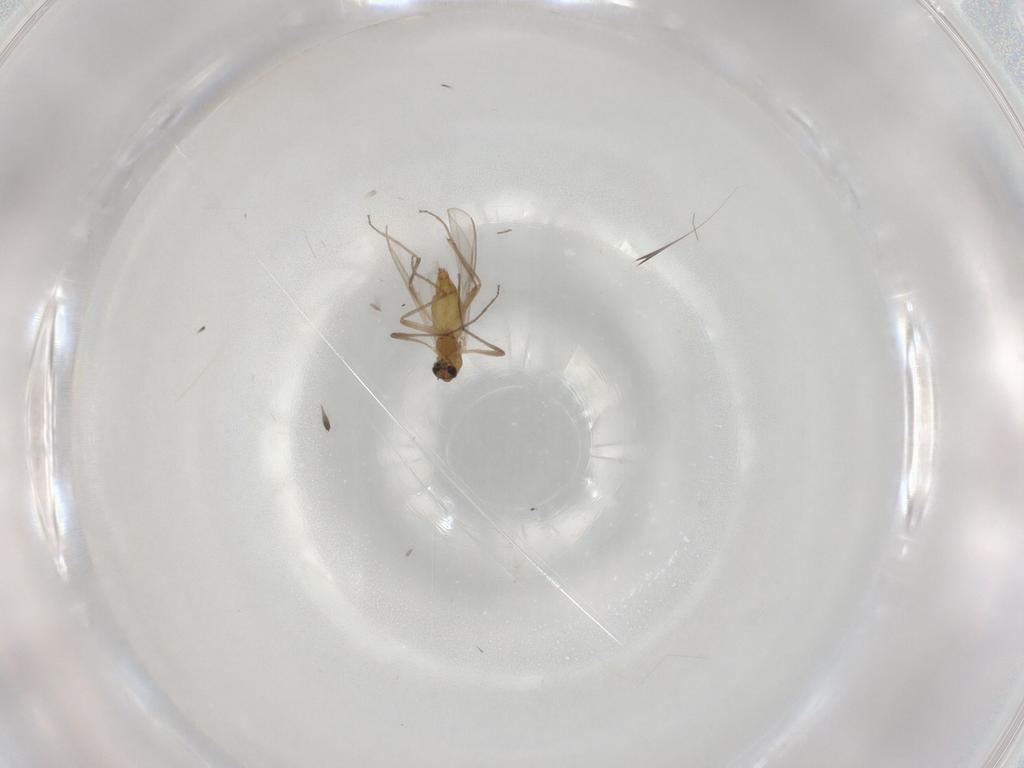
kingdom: Animalia
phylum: Arthropoda
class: Insecta
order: Diptera
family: Chironomidae
